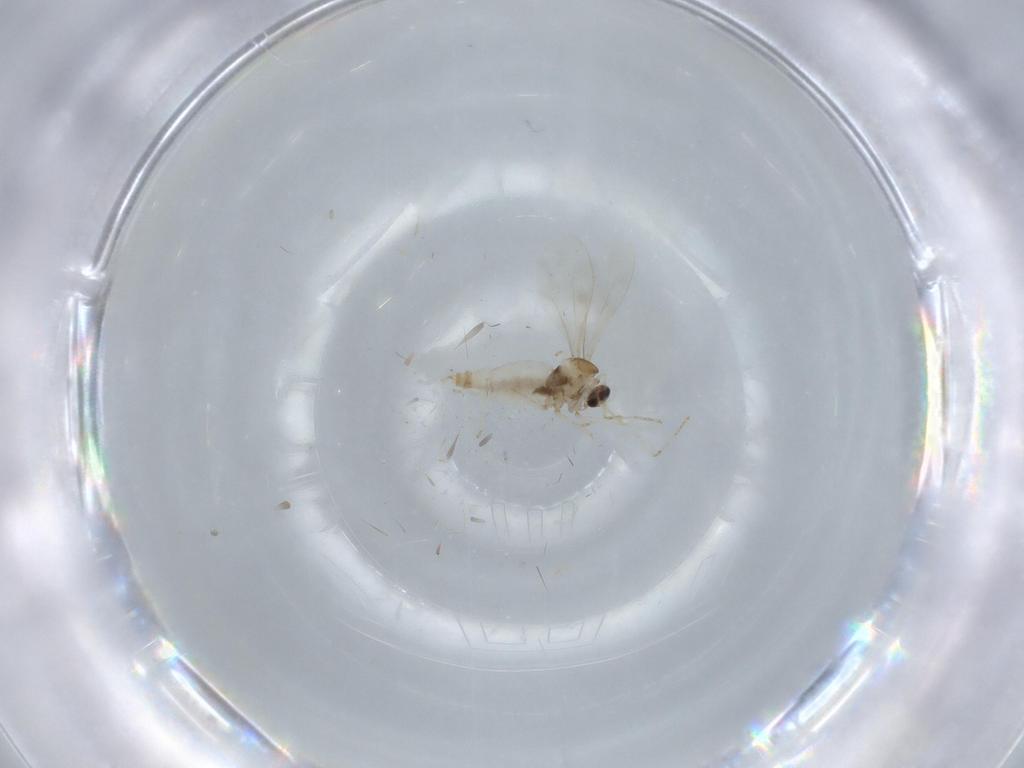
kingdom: Animalia
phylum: Arthropoda
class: Insecta
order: Diptera
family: Cecidomyiidae
